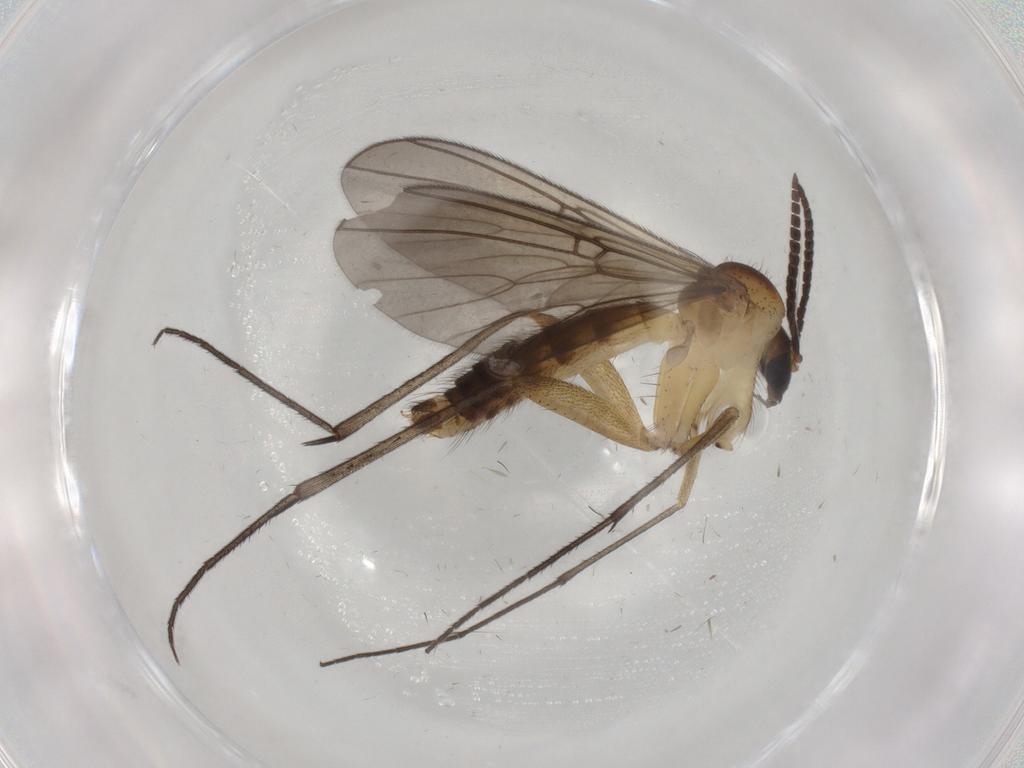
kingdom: Animalia
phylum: Arthropoda
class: Insecta
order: Diptera
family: Mycetophilidae
